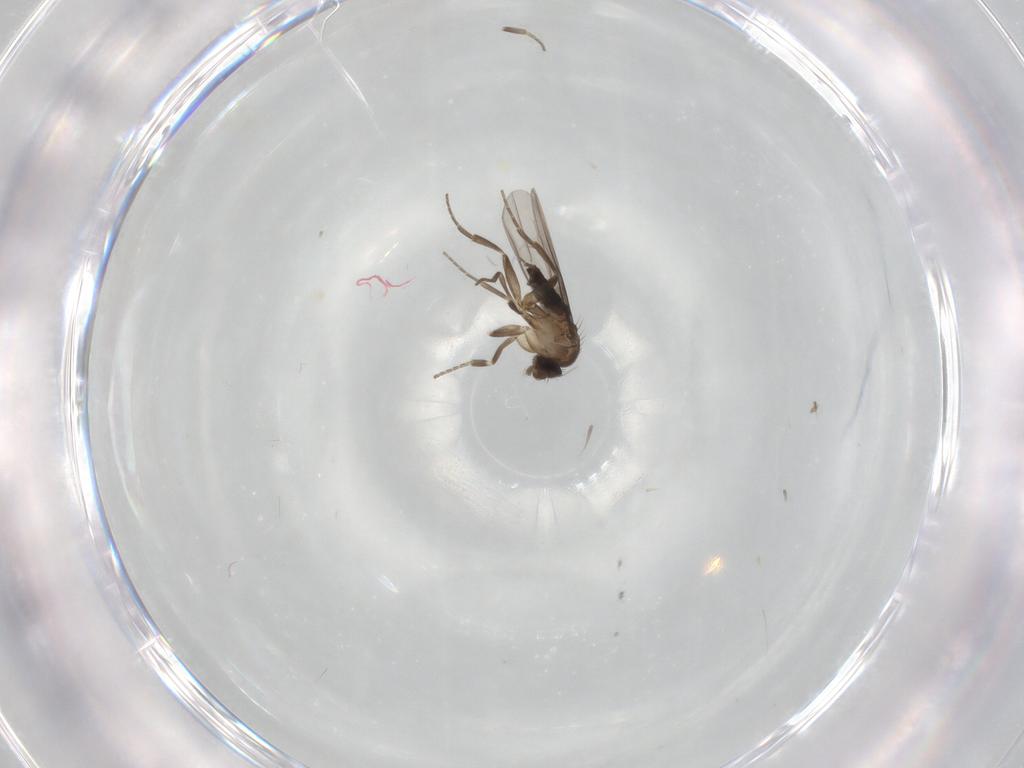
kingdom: Animalia
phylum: Arthropoda
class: Insecta
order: Diptera
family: Phoridae
